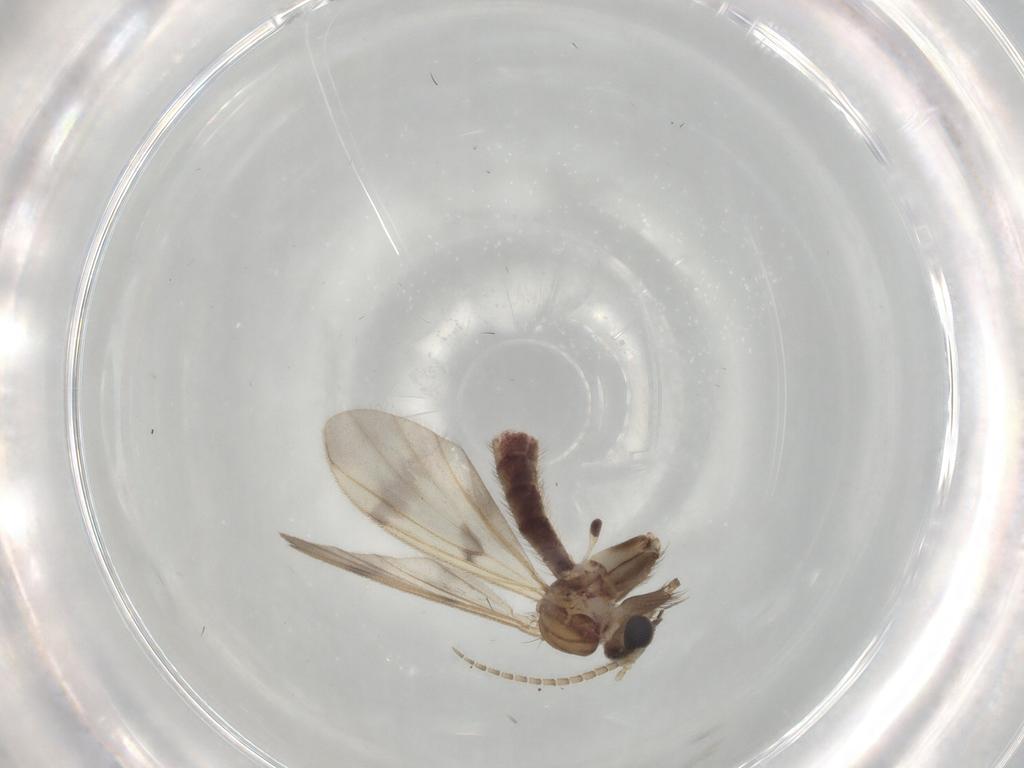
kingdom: Animalia
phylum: Arthropoda
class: Insecta
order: Diptera
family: Cecidomyiidae
